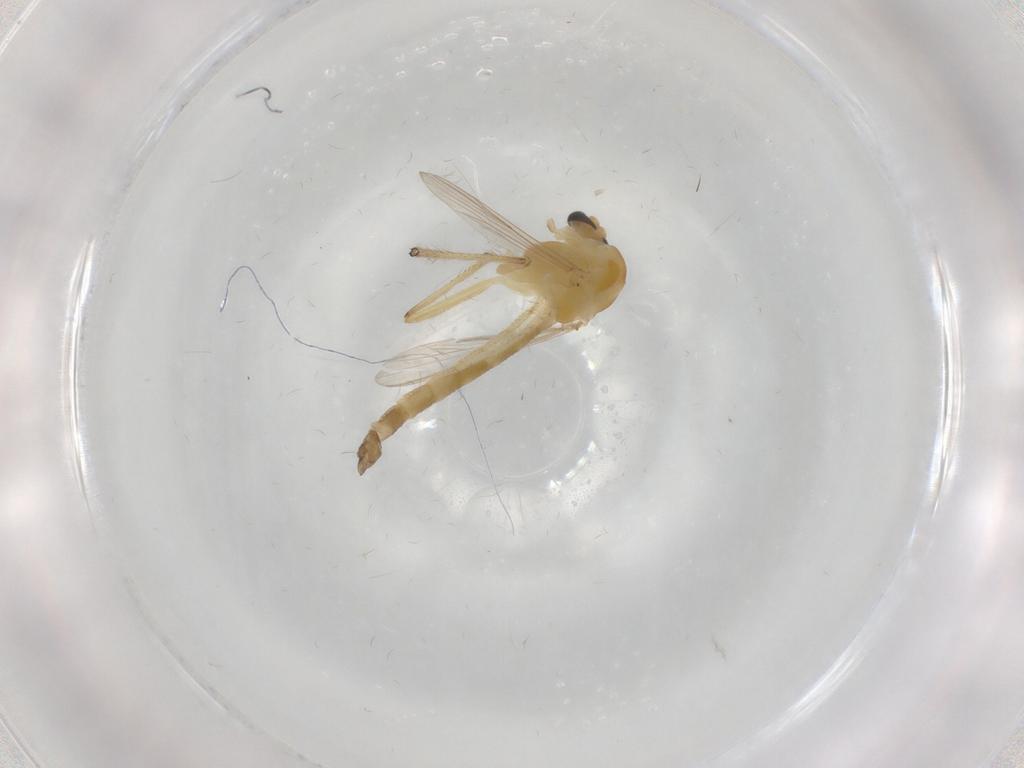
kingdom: Animalia
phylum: Arthropoda
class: Insecta
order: Diptera
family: Chironomidae
